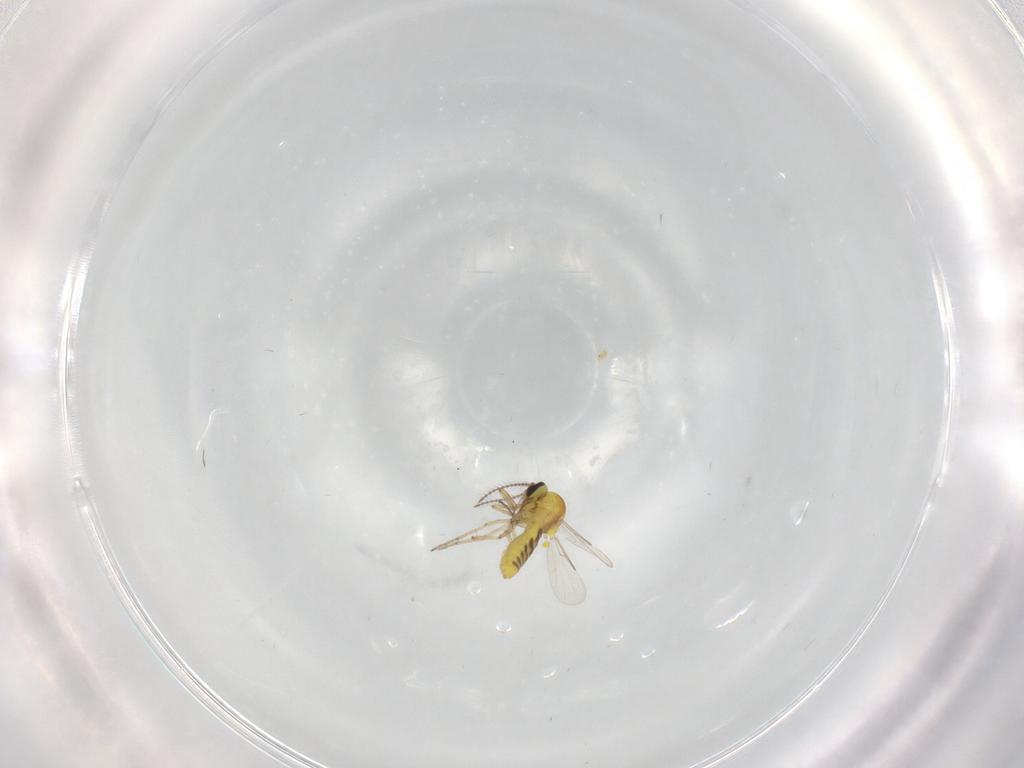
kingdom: Animalia
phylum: Arthropoda
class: Insecta
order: Diptera
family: Ceratopogonidae
